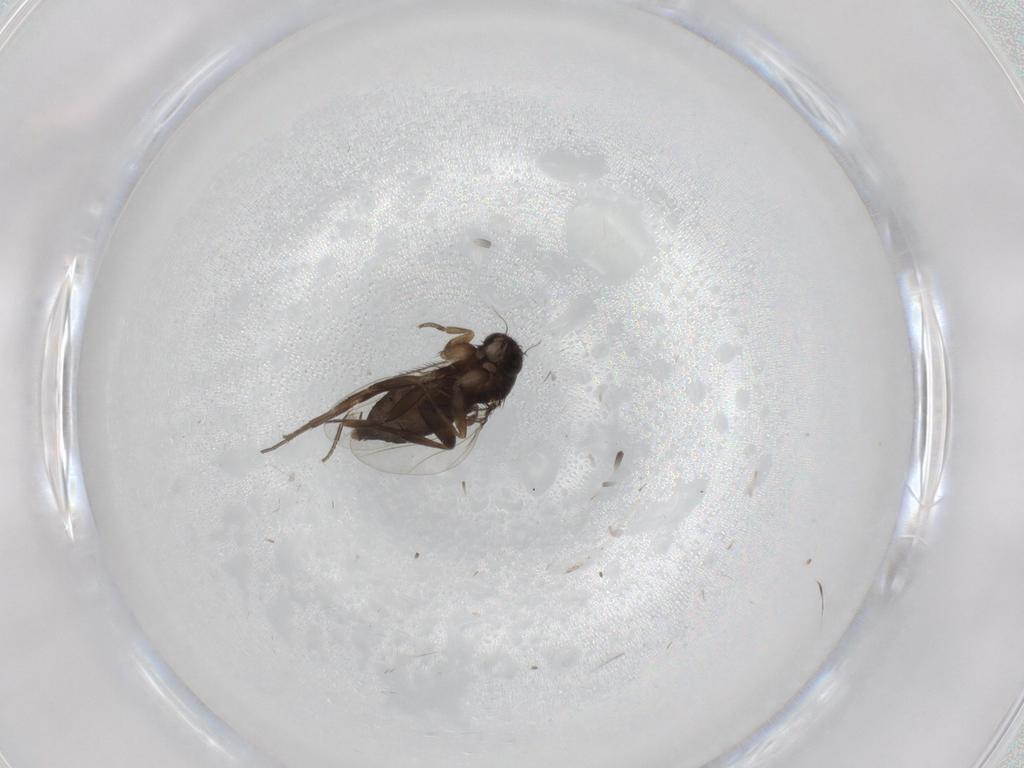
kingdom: Animalia
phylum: Arthropoda
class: Insecta
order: Diptera
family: Phoridae
